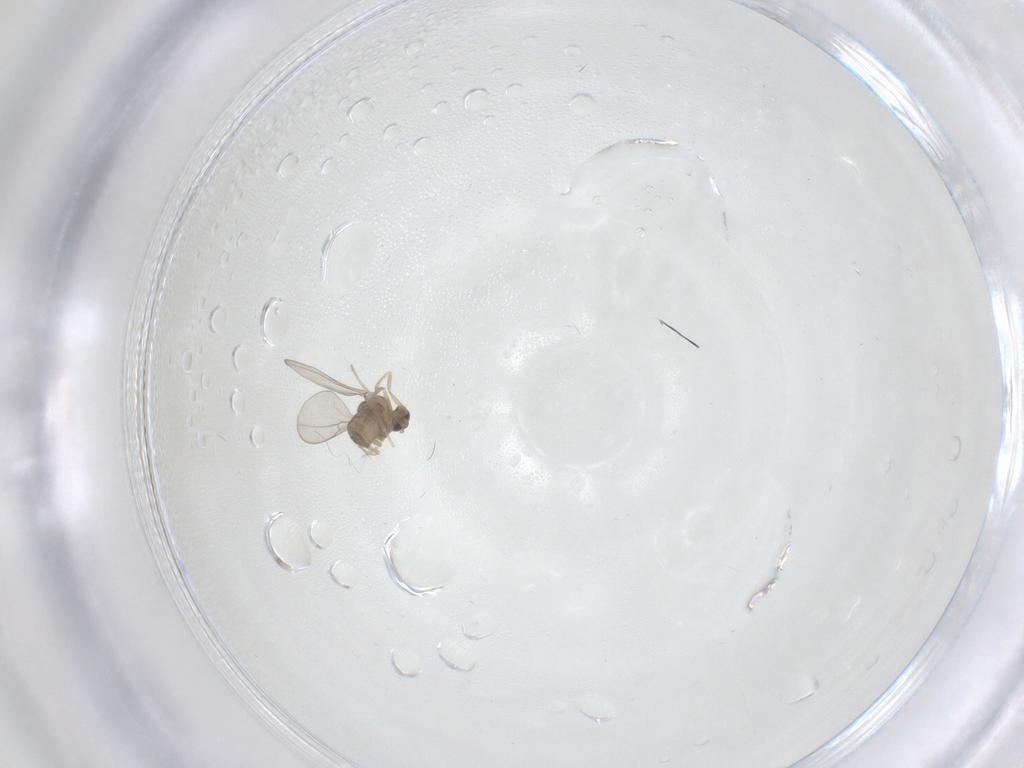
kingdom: Animalia
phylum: Arthropoda
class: Insecta
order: Diptera
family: Cecidomyiidae
